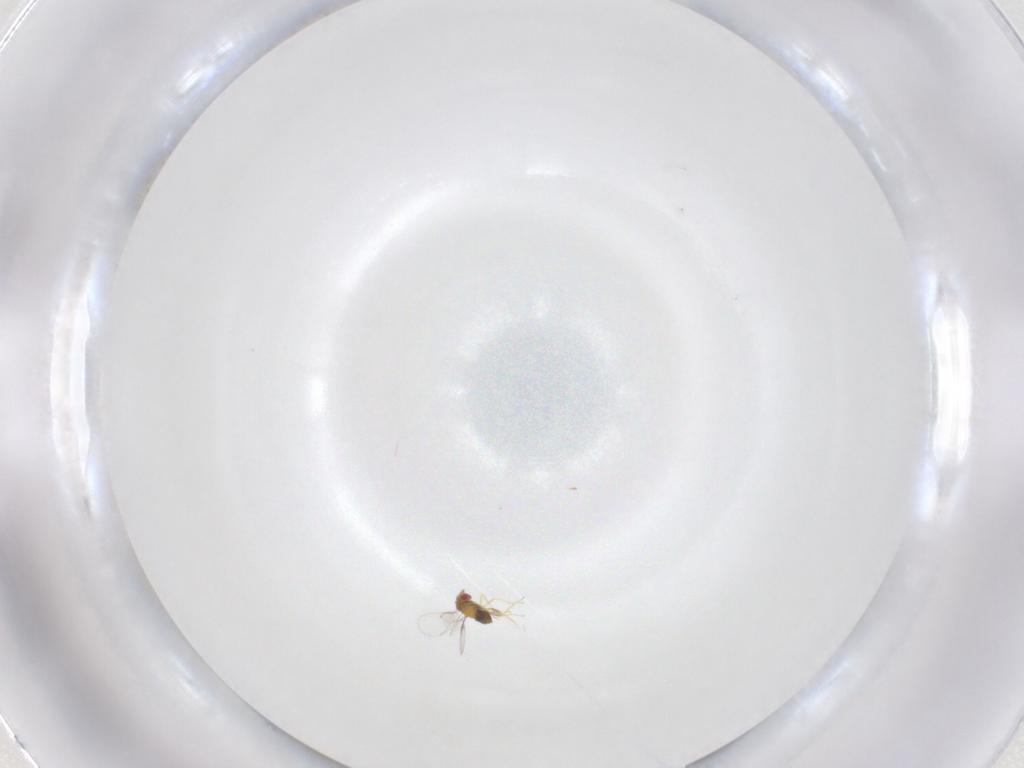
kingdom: Animalia
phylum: Arthropoda
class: Insecta
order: Hymenoptera
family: Trichogrammatidae
